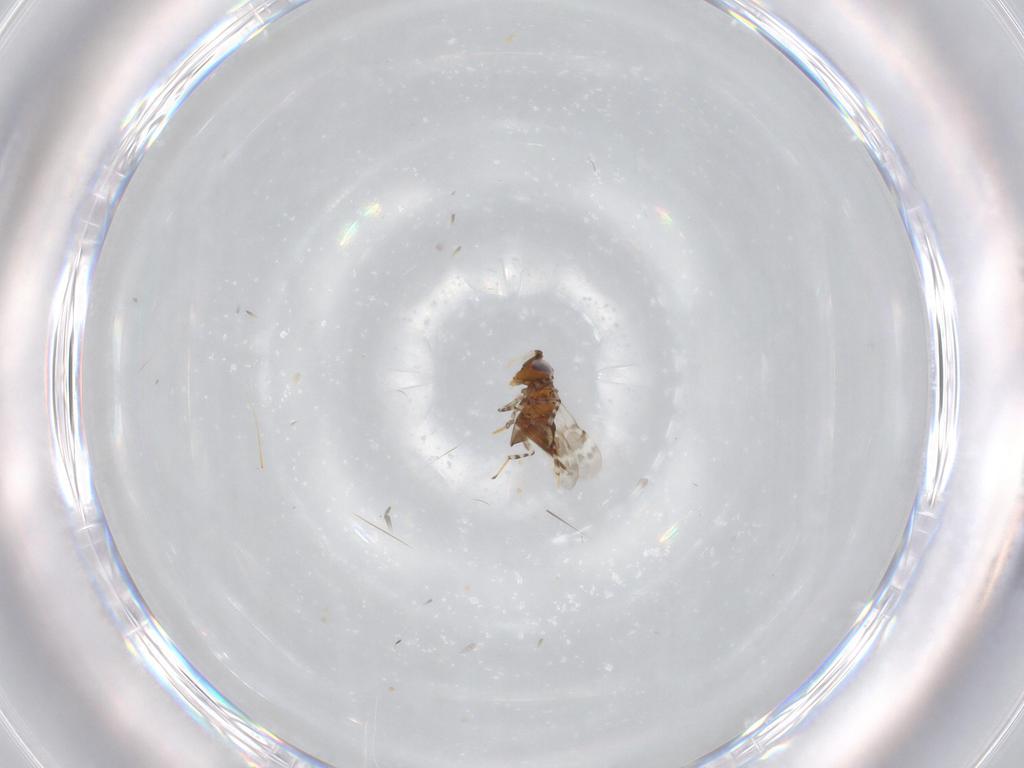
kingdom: Animalia
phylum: Arthropoda
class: Insecta
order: Hymenoptera
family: Encyrtidae
